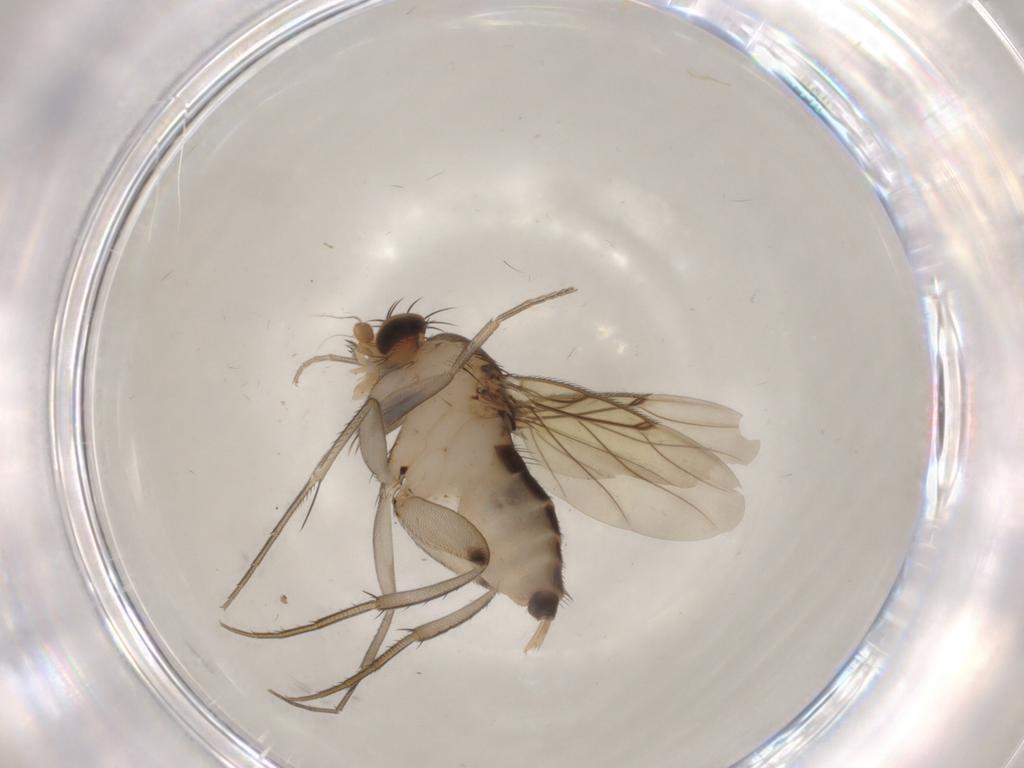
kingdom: Animalia
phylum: Arthropoda
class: Insecta
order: Diptera
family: Phoridae
